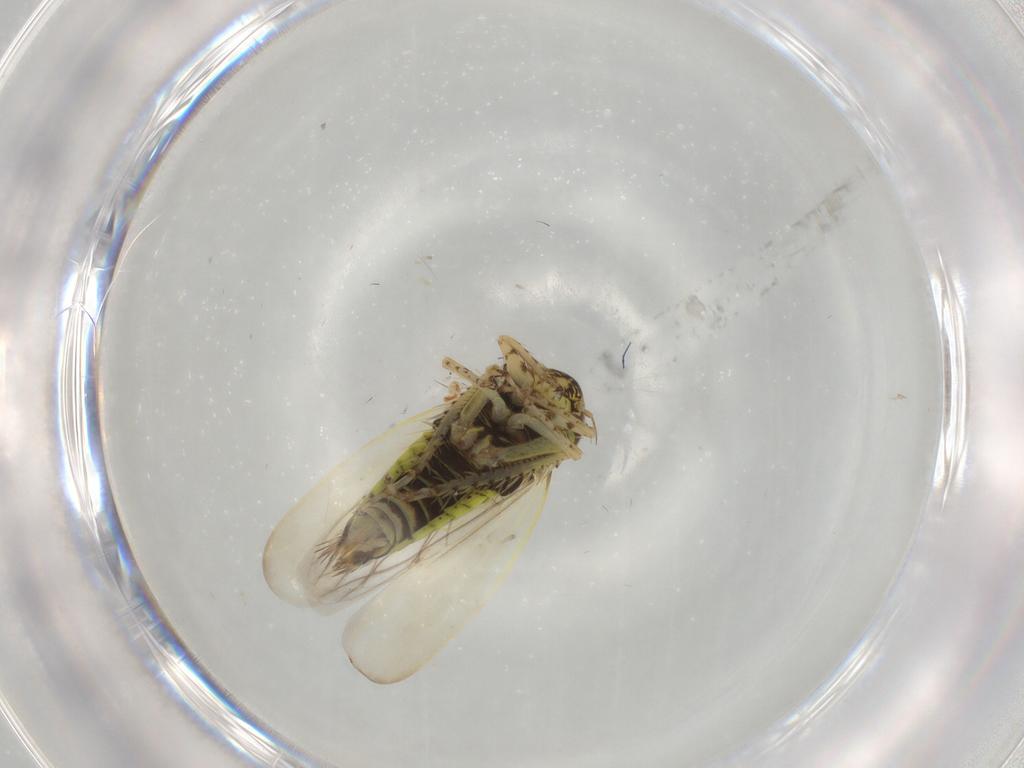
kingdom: Animalia
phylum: Arthropoda
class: Insecta
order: Hemiptera
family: Cicadellidae
